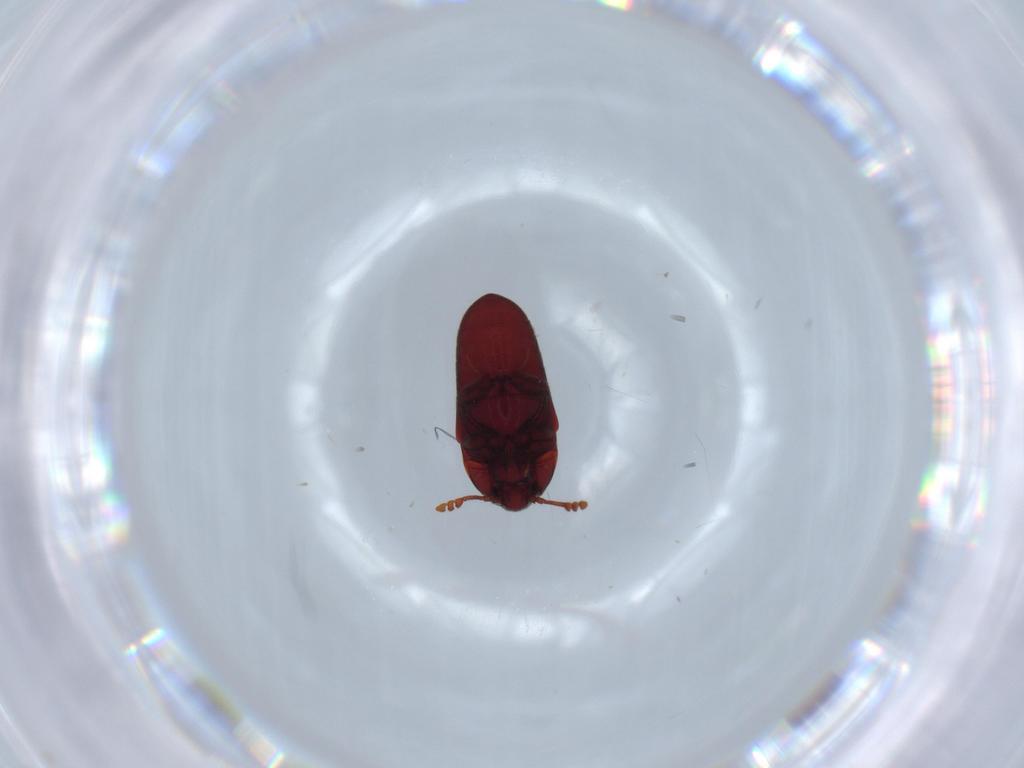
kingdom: Animalia
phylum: Arthropoda
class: Insecta
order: Coleoptera
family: Throscidae
